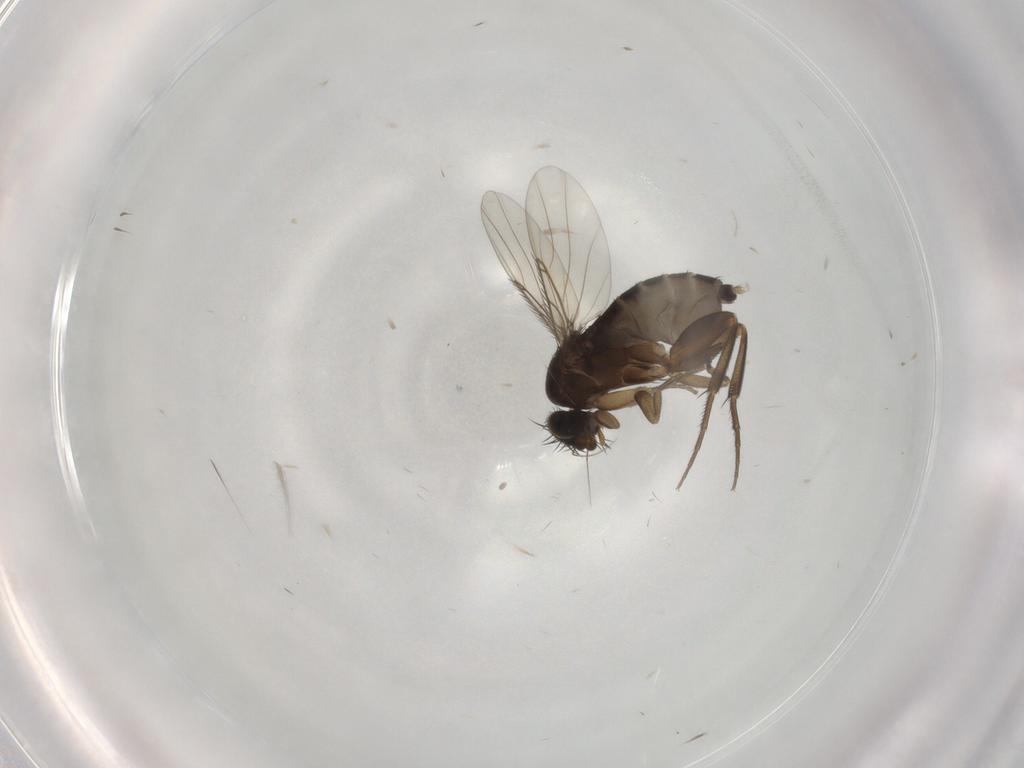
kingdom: Animalia
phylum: Arthropoda
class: Insecta
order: Diptera
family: Phoridae
